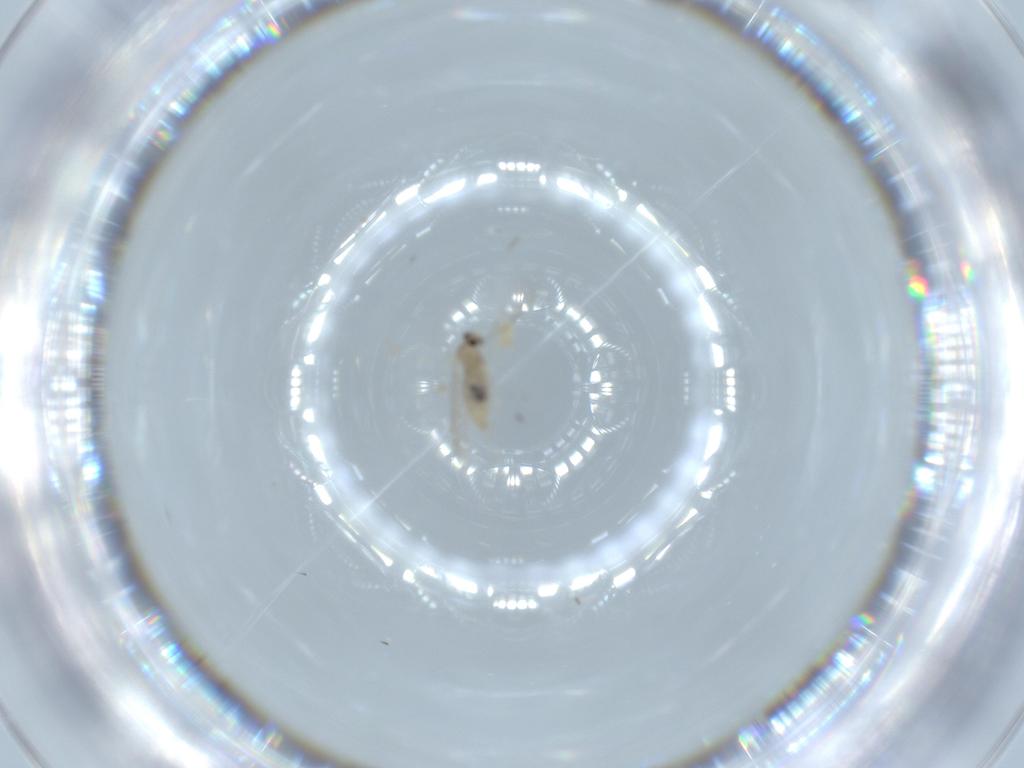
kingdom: Animalia
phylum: Arthropoda
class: Insecta
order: Diptera
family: Cecidomyiidae
